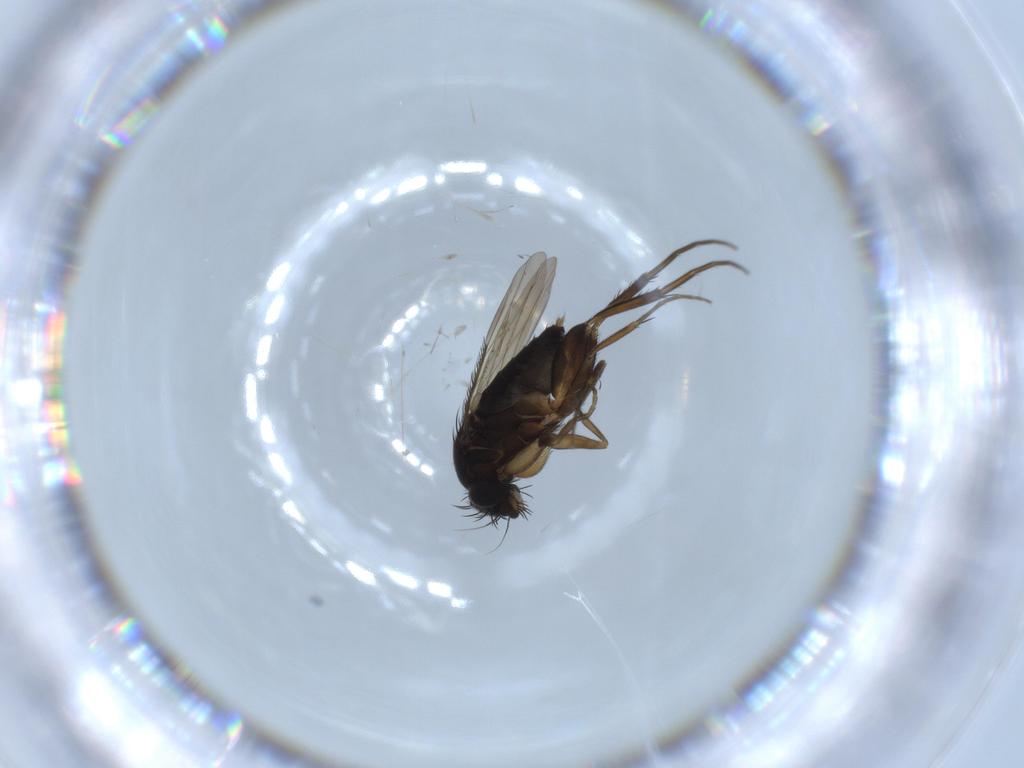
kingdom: Animalia
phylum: Arthropoda
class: Insecta
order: Diptera
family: Phoridae
